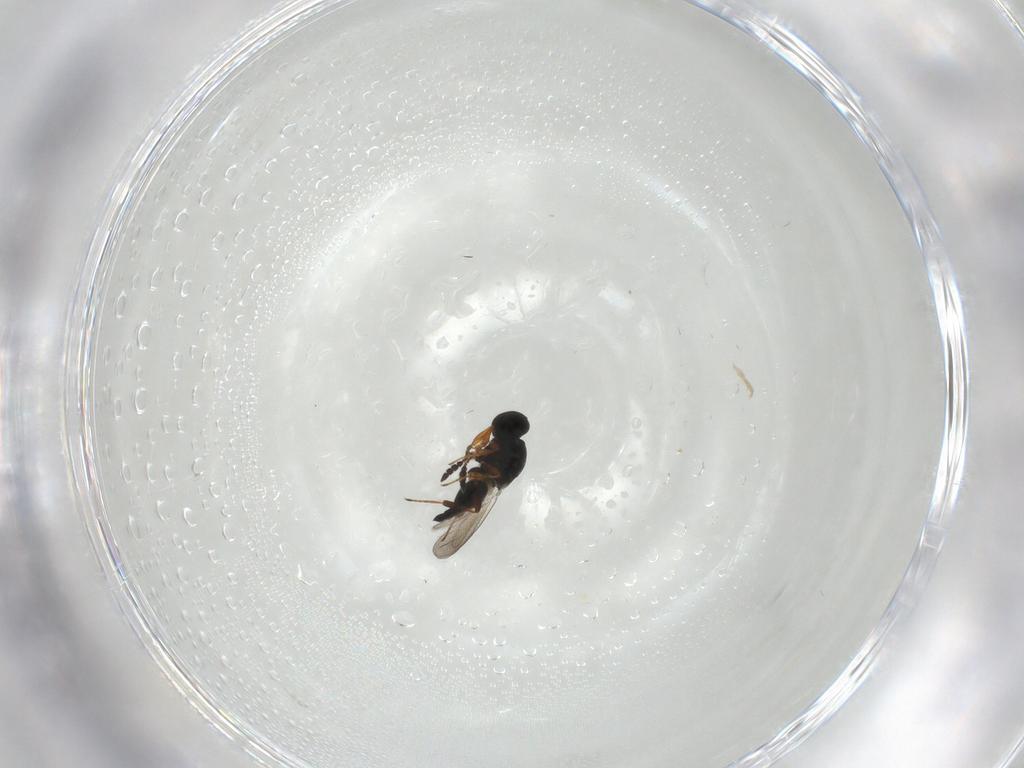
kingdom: Animalia
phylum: Arthropoda
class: Insecta
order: Hymenoptera
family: Platygastridae
